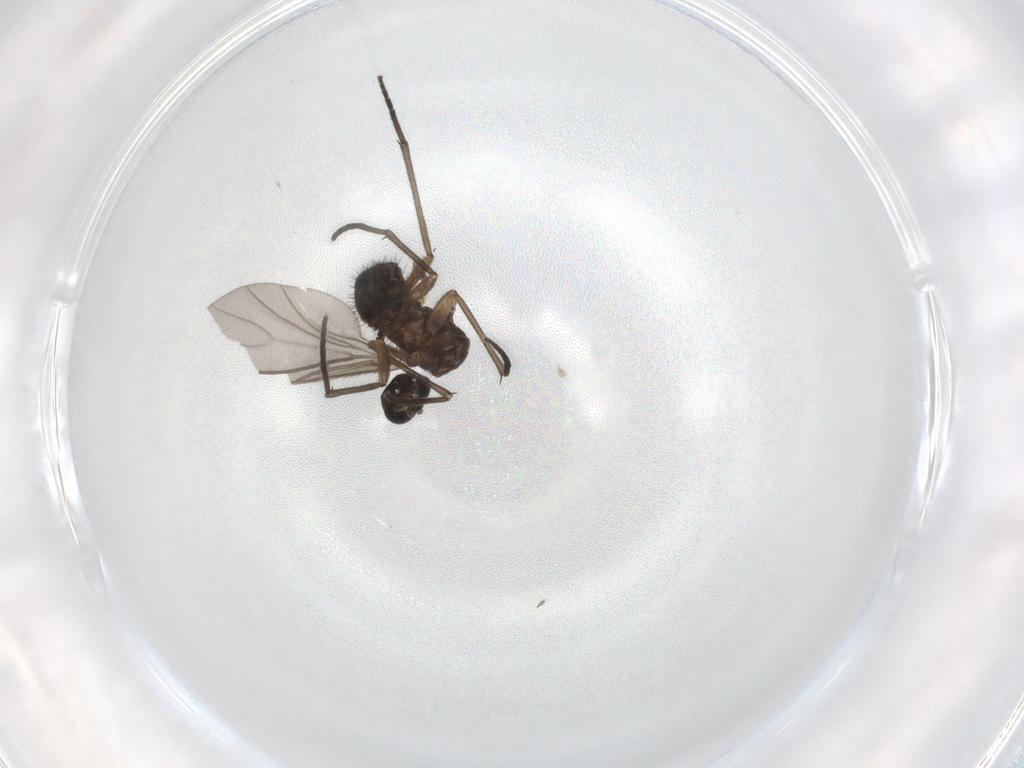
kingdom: Animalia
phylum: Arthropoda
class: Insecta
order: Diptera
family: Sciaridae
